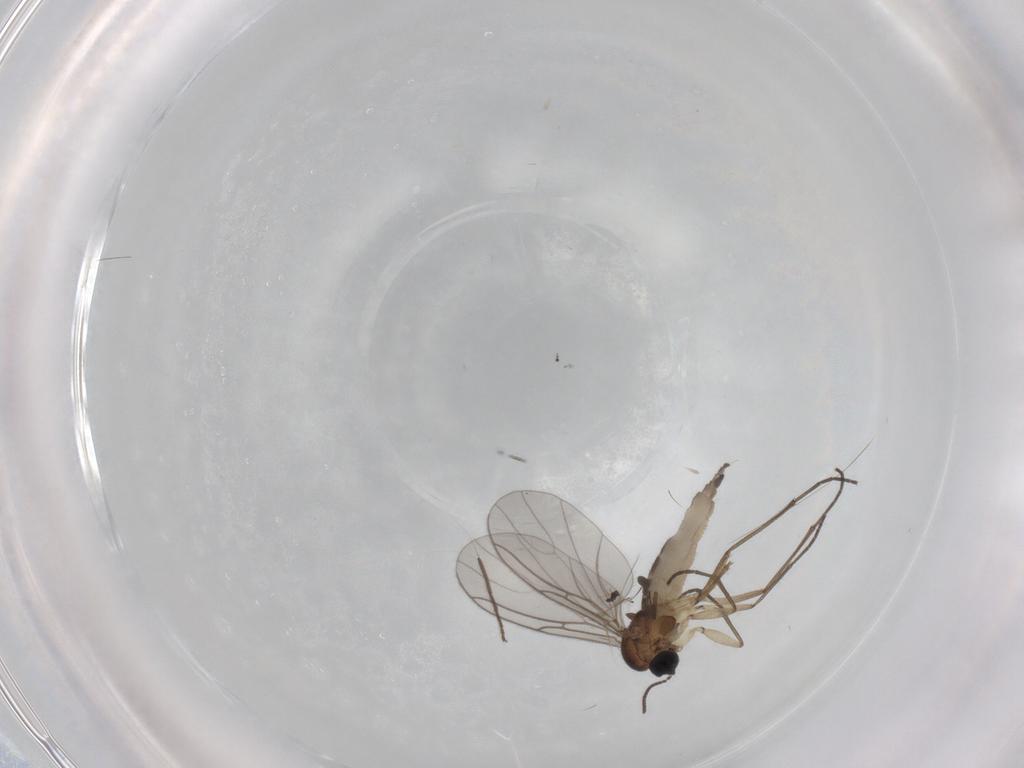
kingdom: Animalia
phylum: Arthropoda
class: Insecta
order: Diptera
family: Sciaridae
